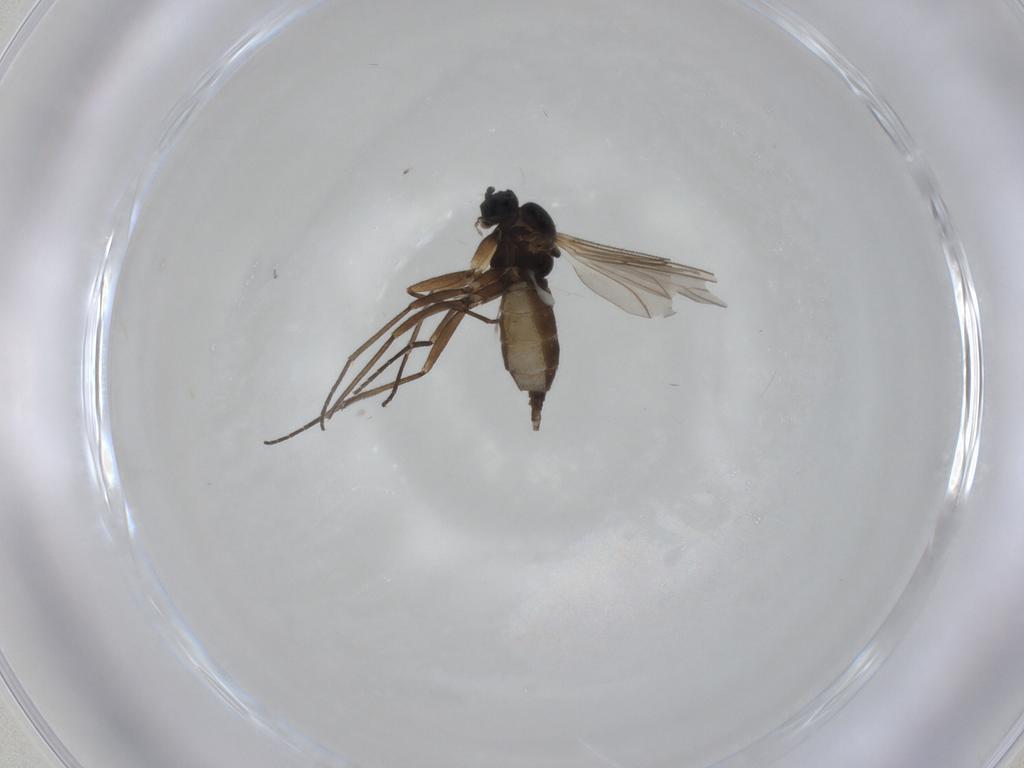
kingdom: Animalia
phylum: Arthropoda
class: Insecta
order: Diptera
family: Sciaridae
